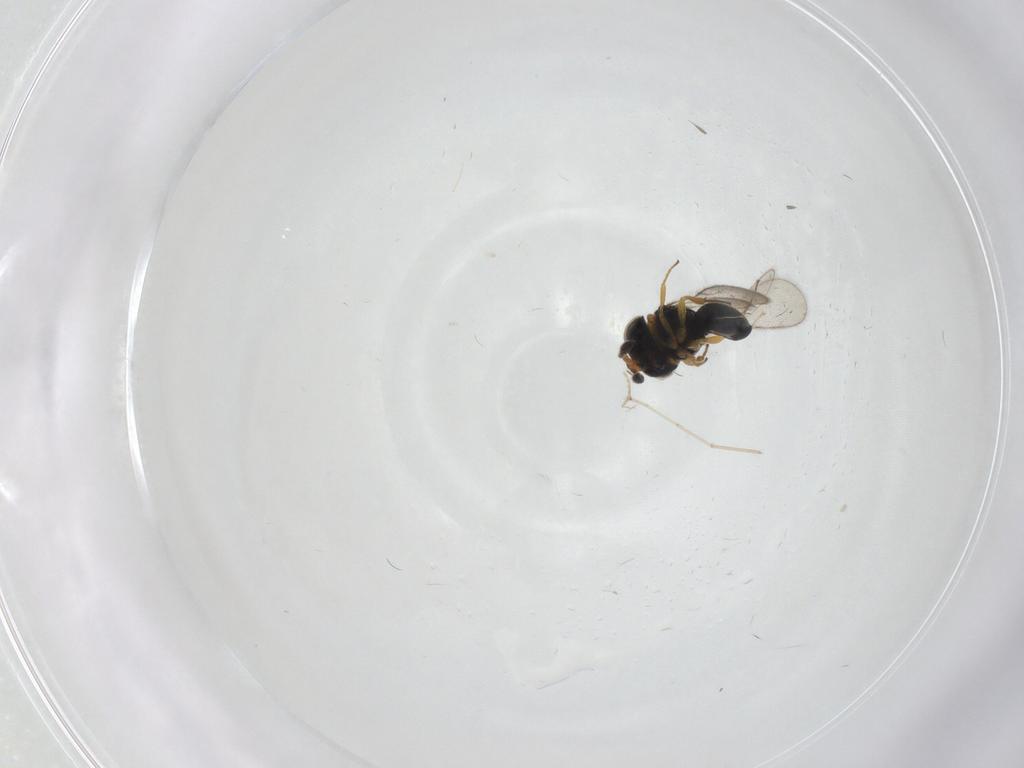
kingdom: Animalia
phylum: Arthropoda
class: Insecta
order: Hymenoptera
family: Scelionidae
